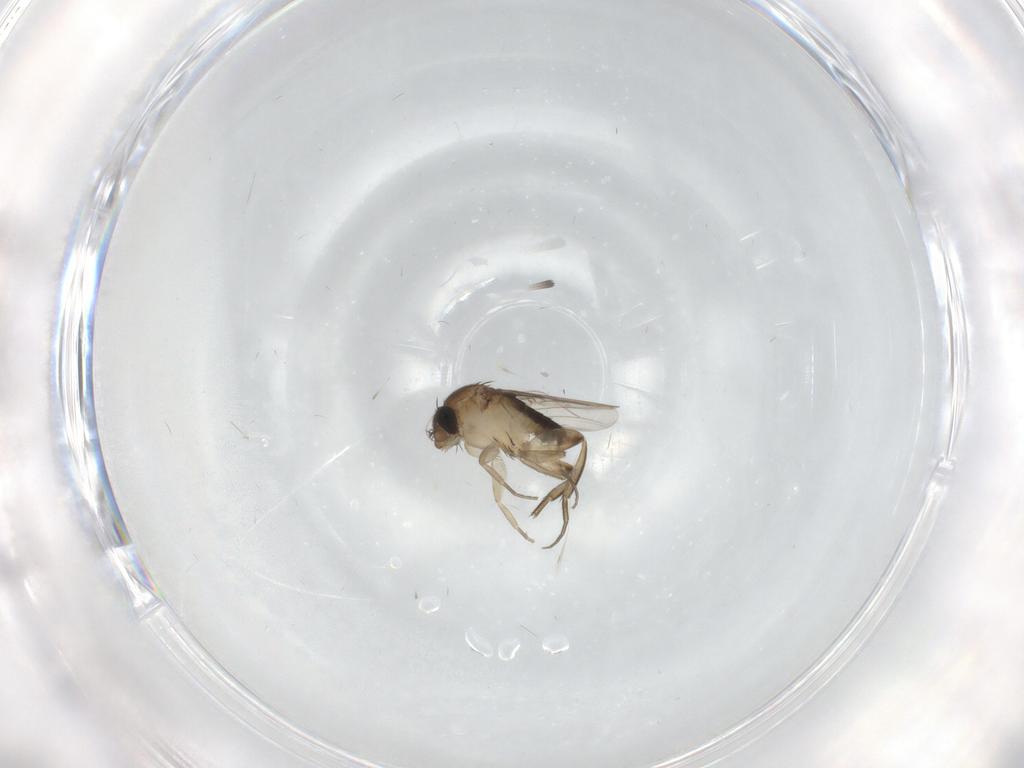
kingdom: Animalia
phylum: Arthropoda
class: Insecta
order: Diptera
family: Phoridae
